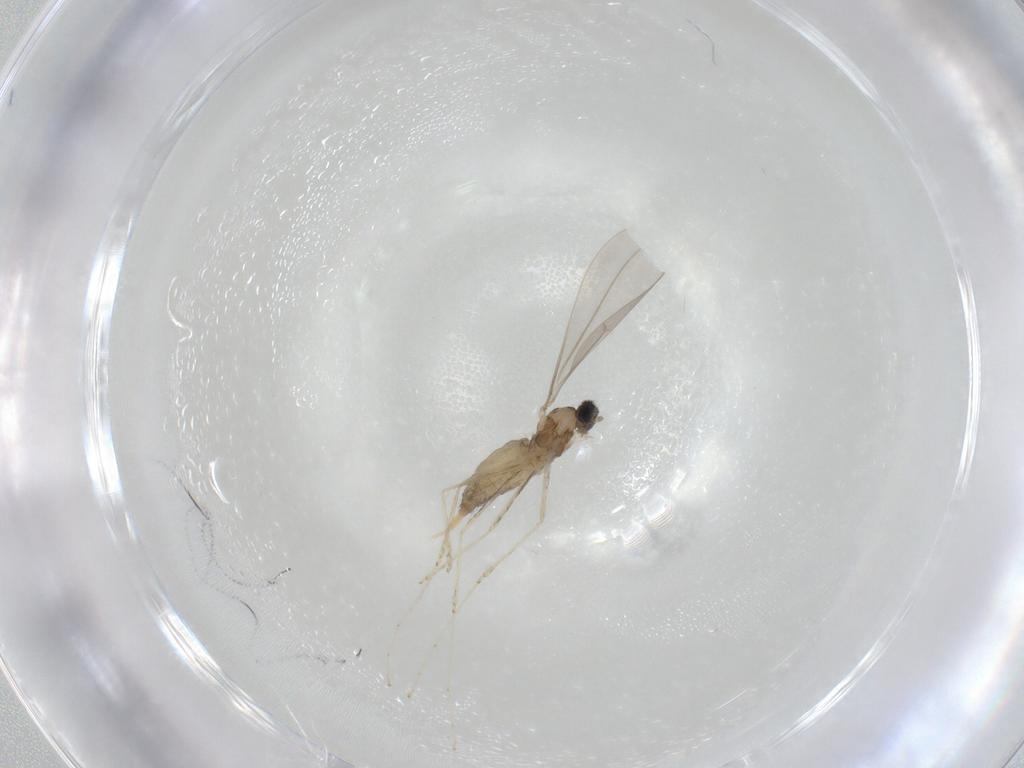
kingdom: Animalia
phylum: Arthropoda
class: Insecta
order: Diptera
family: Cecidomyiidae
